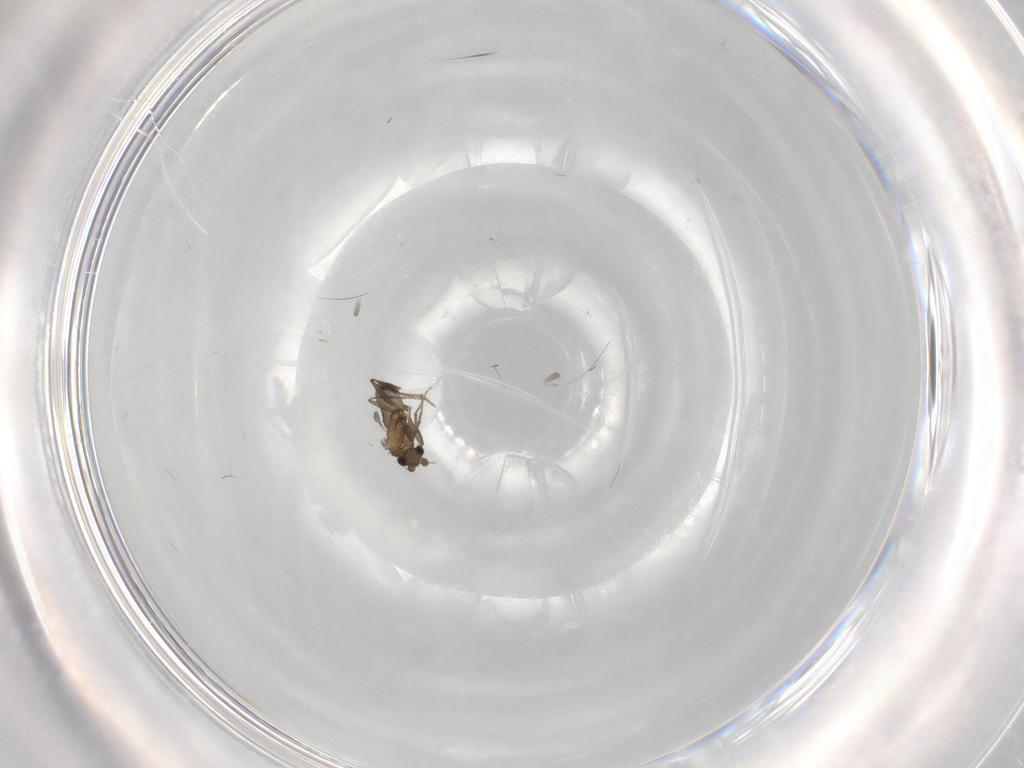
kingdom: Animalia
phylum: Arthropoda
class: Insecta
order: Diptera
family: Phoridae
